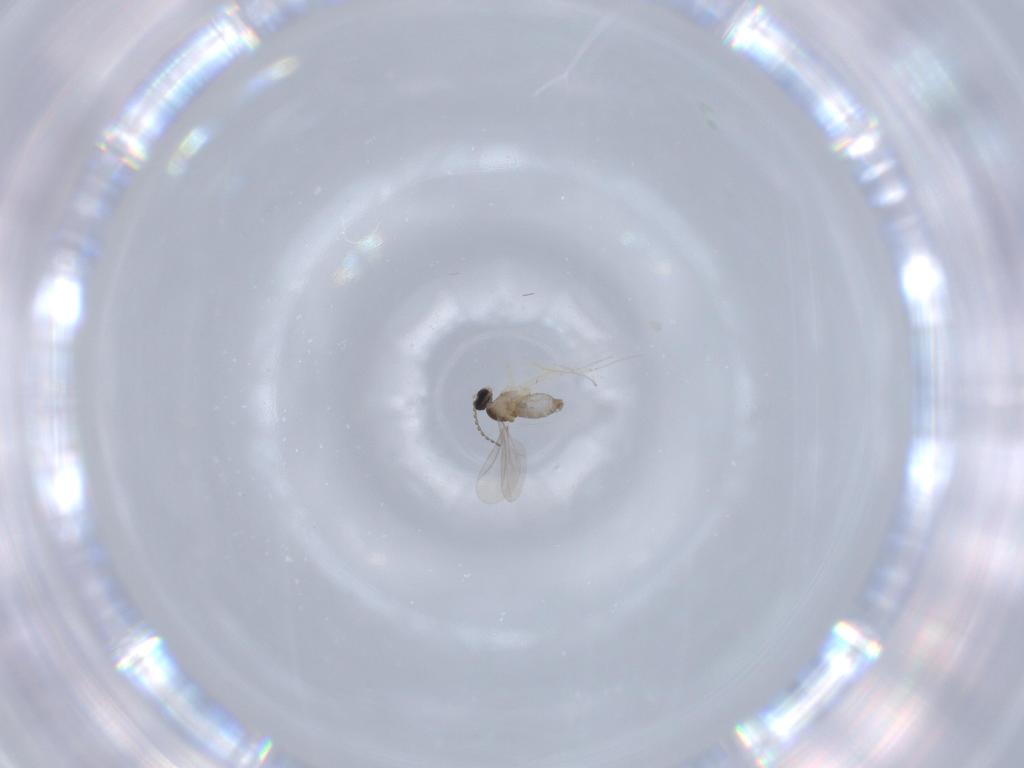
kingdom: Animalia
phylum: Arthropoda
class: Insecta
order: Diptera
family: Cecidomyiidae
